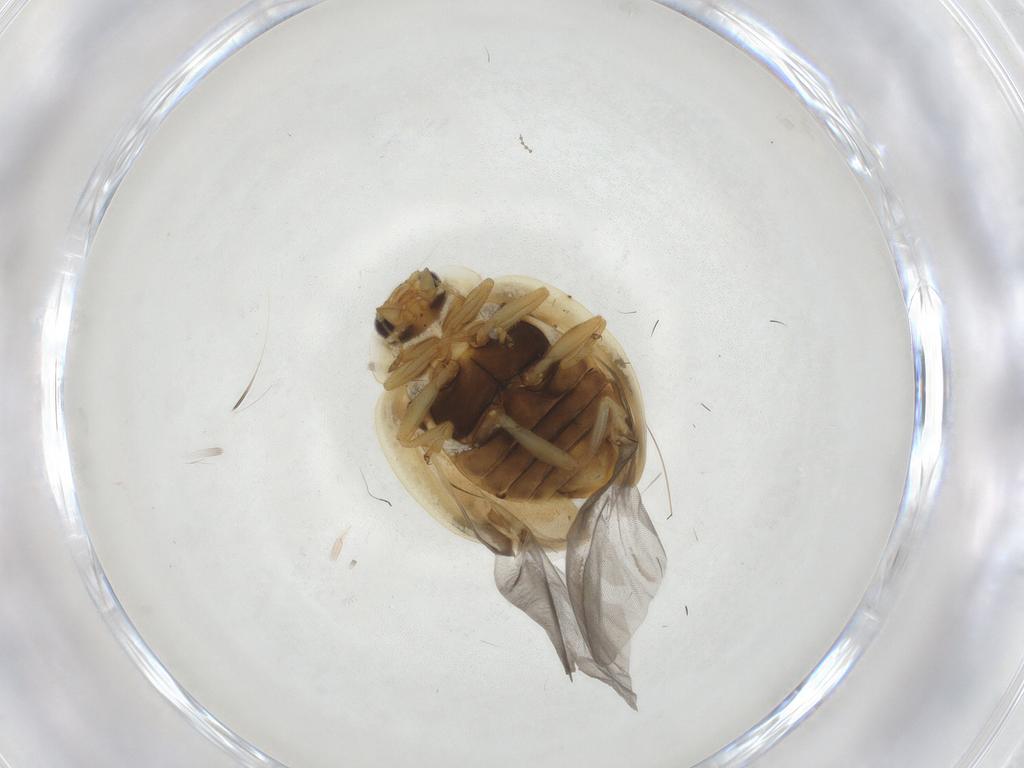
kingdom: Animalia
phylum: Arthropoda
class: Insecta
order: Coleoptera
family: Coccinellidae
